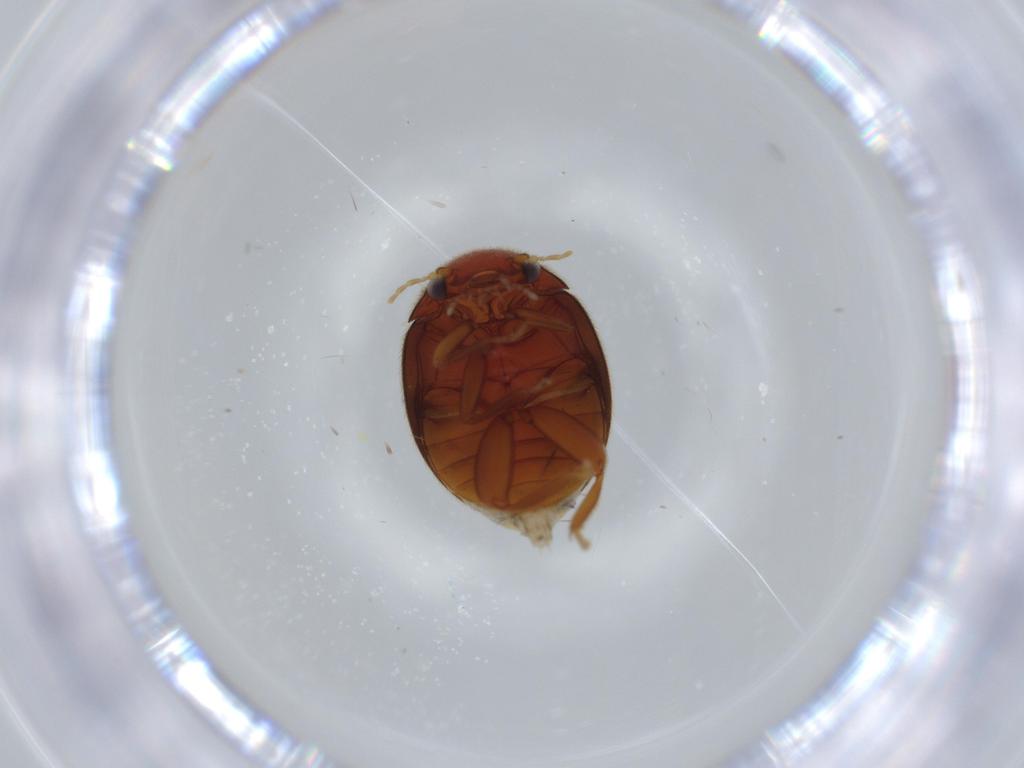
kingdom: Animalia
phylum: Arthropoda
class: Insecta
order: Coleoptera
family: Scirtidae
